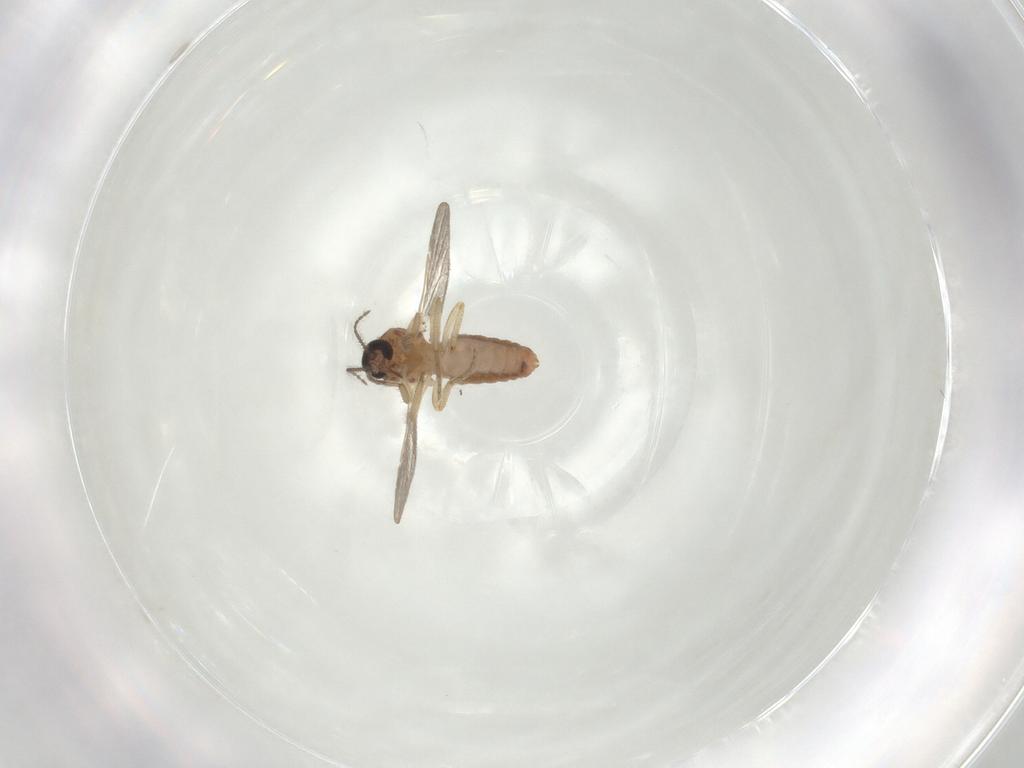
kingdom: Animalia
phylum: Arthropoda
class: Insecta
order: Diptera
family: Ceratopogonidae
